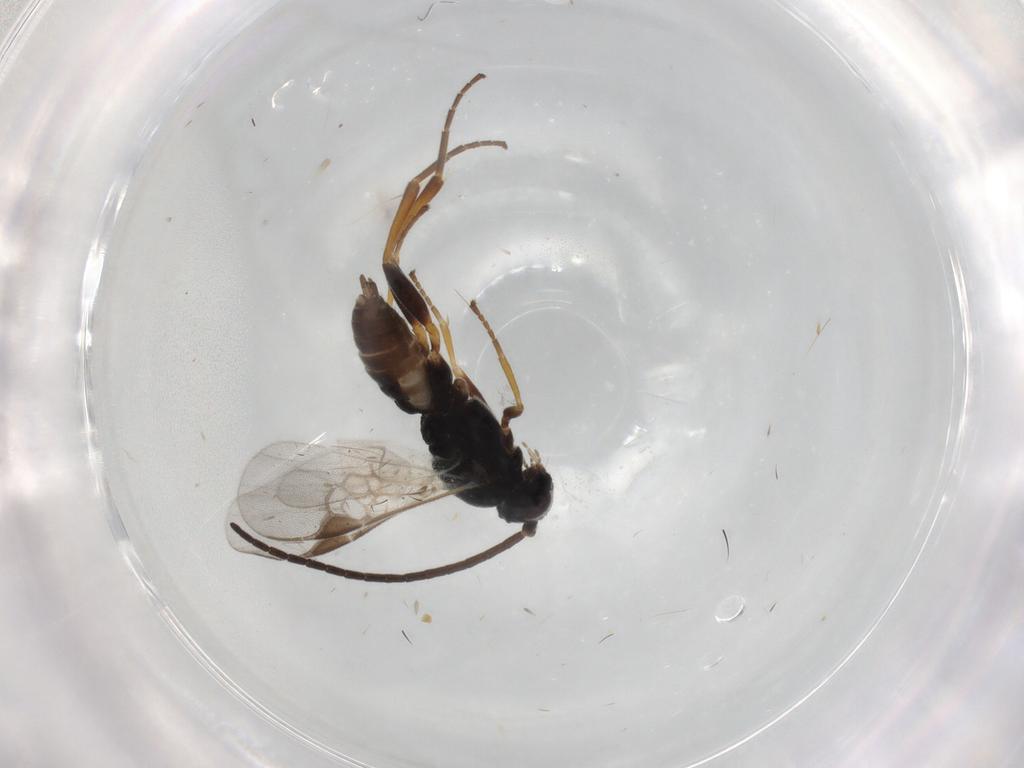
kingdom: Animalia
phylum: Arthropoda
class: Insecta
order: Hymenoptera
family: Braconidae
